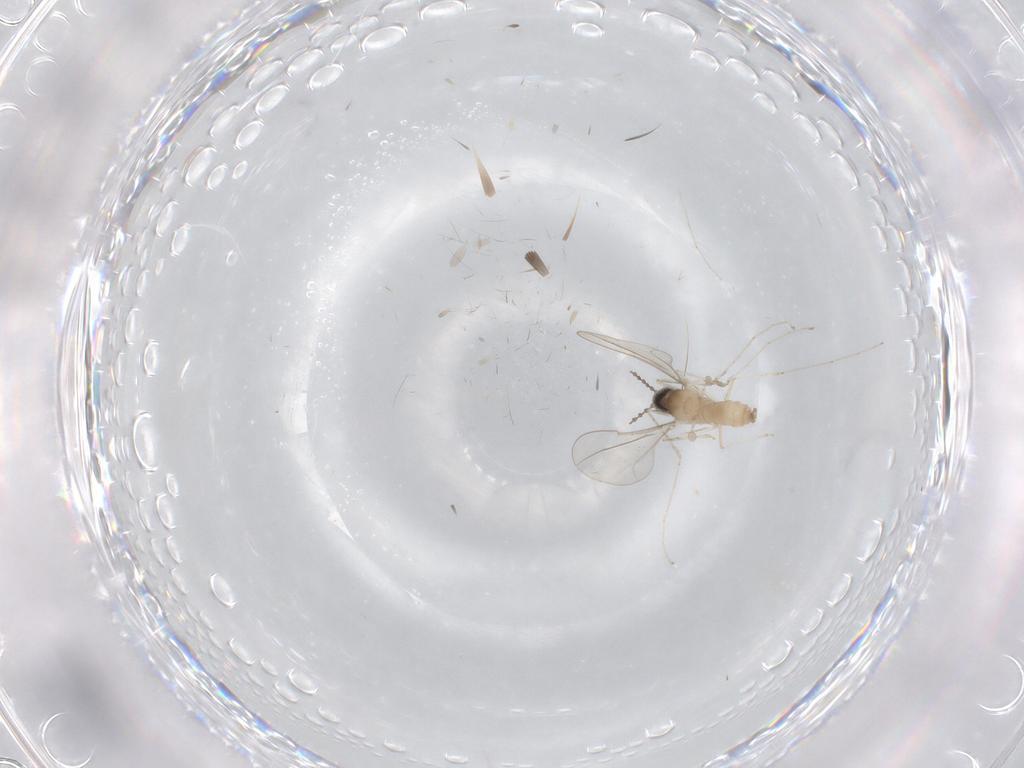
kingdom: Animalia
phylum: Arthropoda
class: Insecta
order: Diptera
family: Cecidomyiidae
